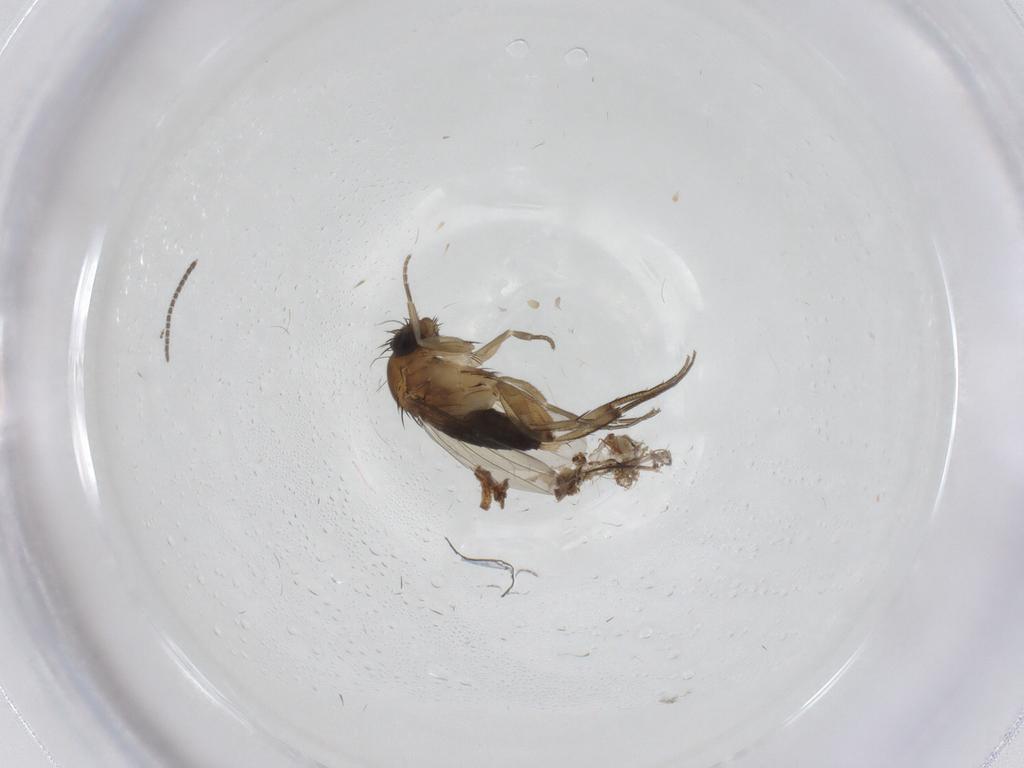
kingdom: Animalia
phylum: Arthropoda
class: Insecta
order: Diptera
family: Sciaridae
